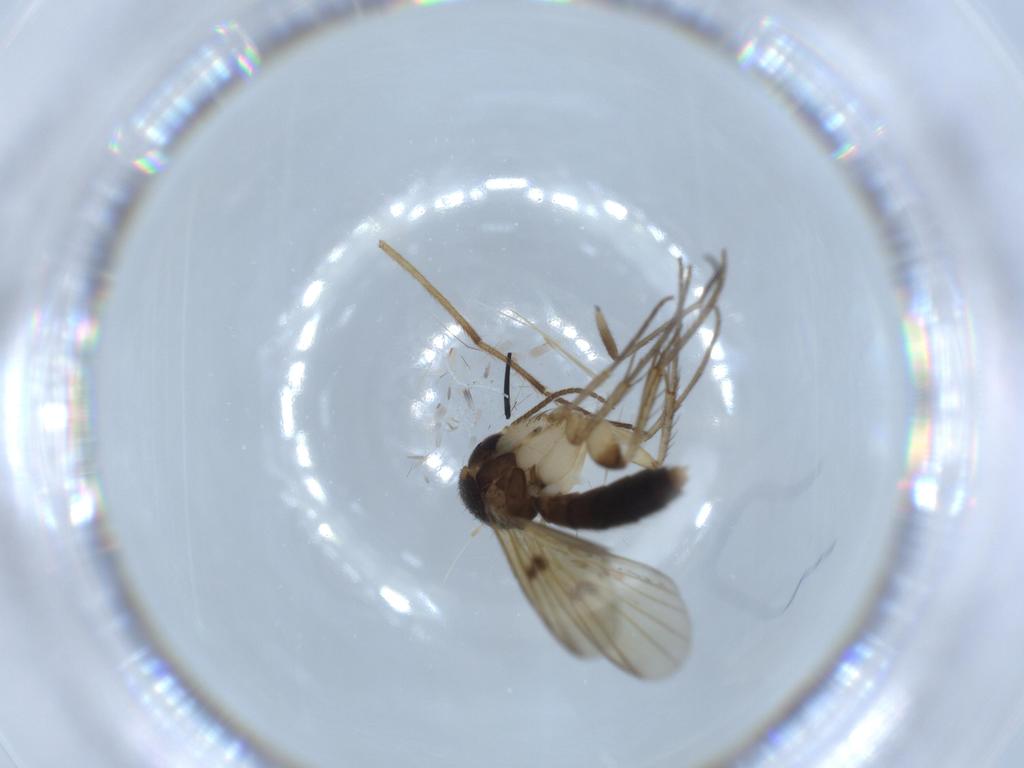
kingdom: Animalia
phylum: Arthropoda
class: Insecta
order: Diptera
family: Mycetophilidae
